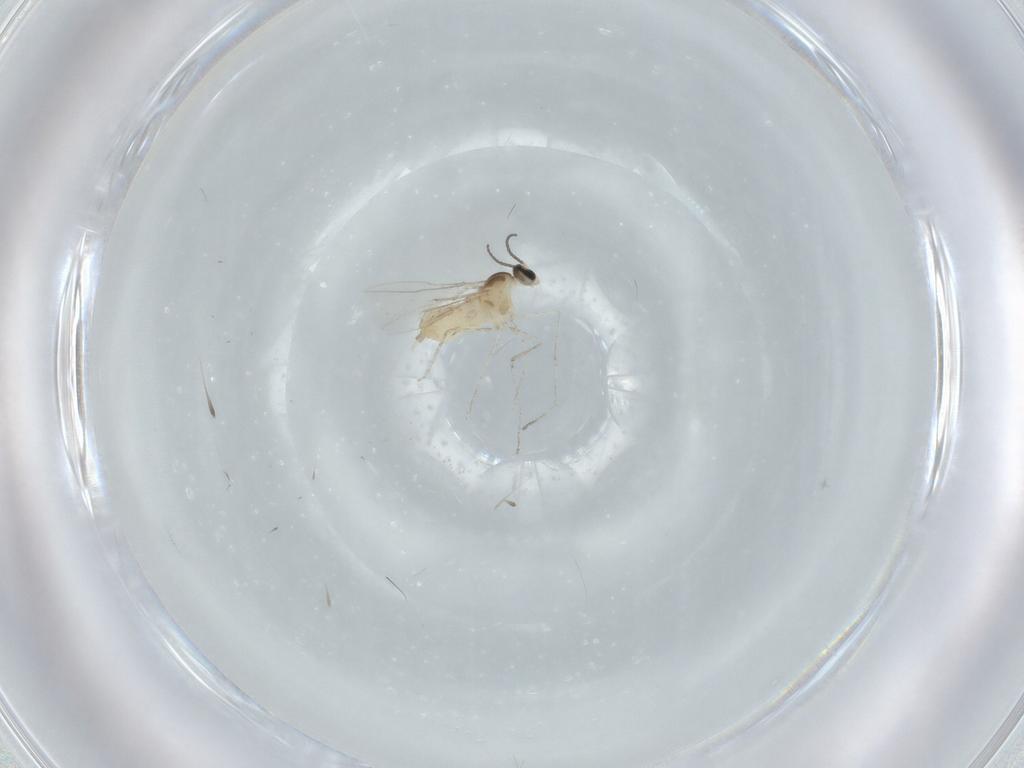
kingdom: Animalia
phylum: Arthropoda
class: Insecta
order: Diptera
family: Cecidomyiidae
